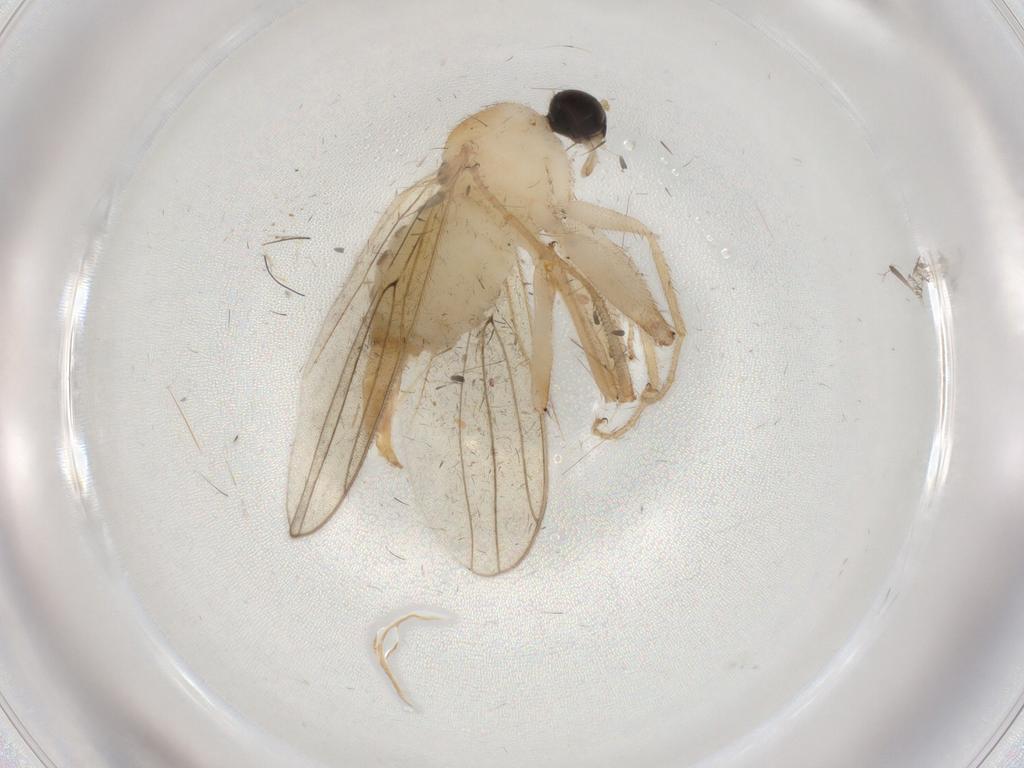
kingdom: Animalia
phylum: Arthropoda
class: Insecta
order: Diptera
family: Hybotidae
